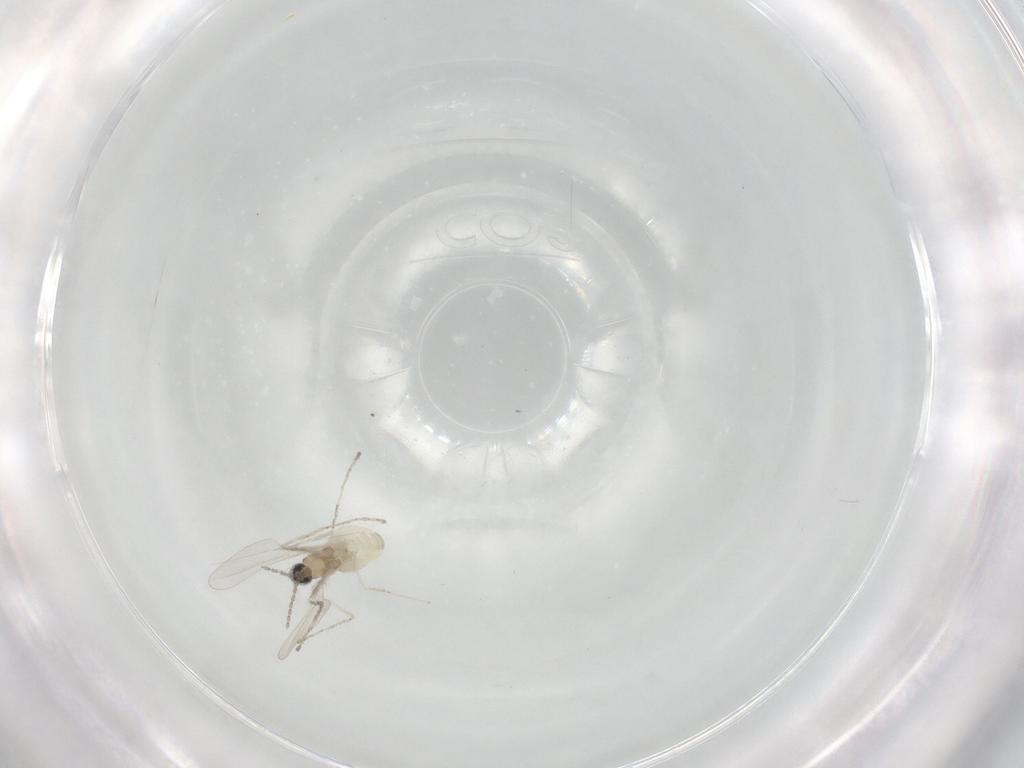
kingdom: Animalia
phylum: Arthropoda
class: Insecta
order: Diptera
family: Cecidomyiidae
